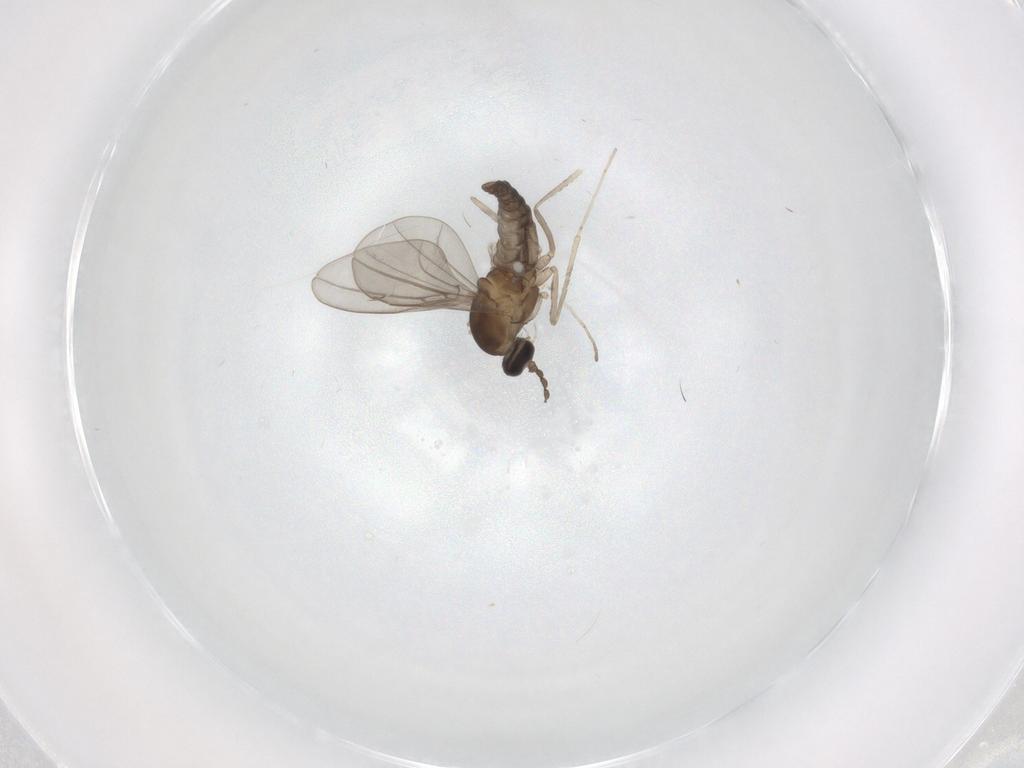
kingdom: Animalia
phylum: Arthropoda
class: Insecta
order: Diptera
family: Cecidomyiidae
